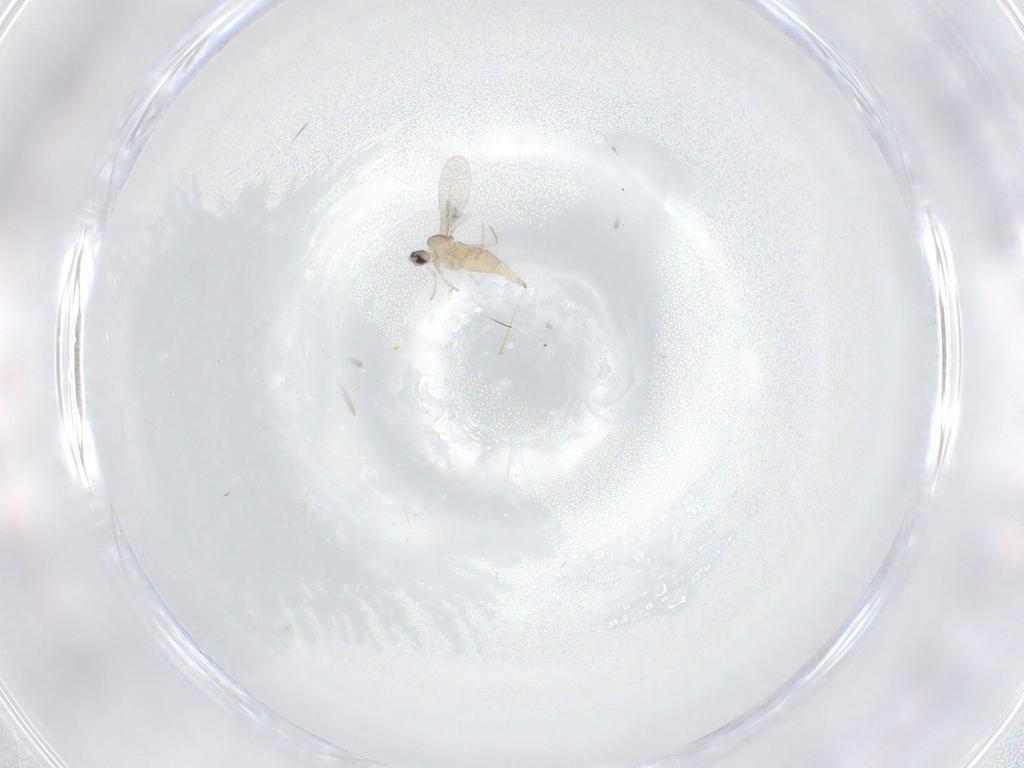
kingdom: Animalia
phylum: Arthropoda
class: Insecta
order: Diptera
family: Cecidomyiidae
